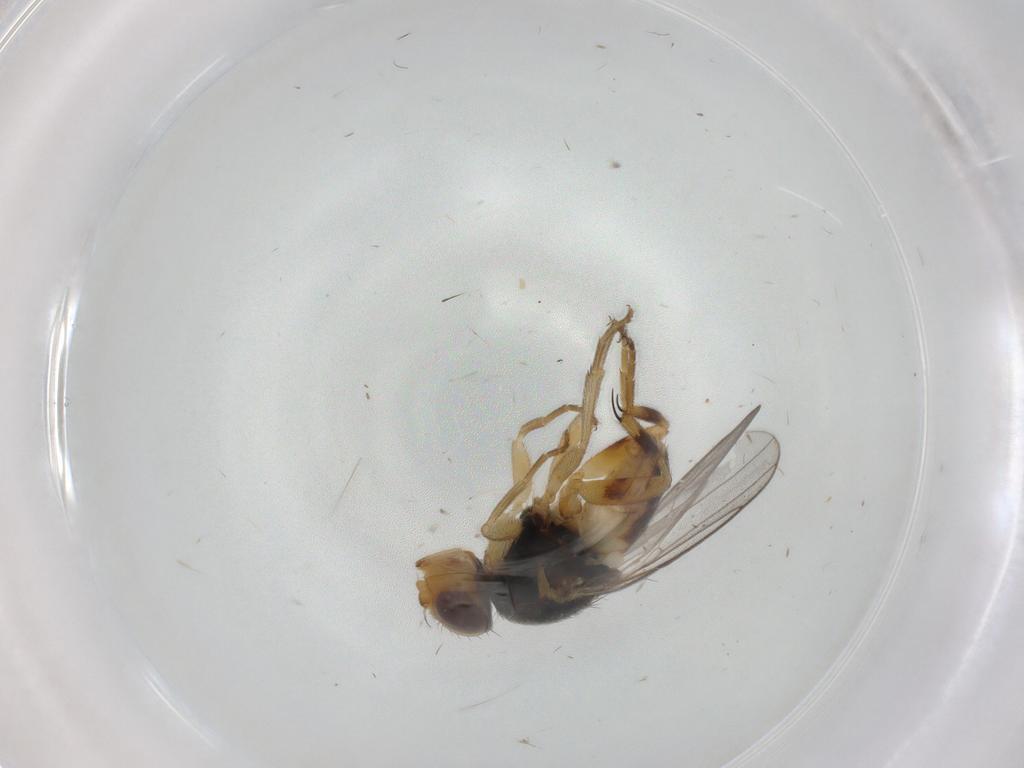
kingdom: Animalia
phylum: Arthropoda
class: Insecta
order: Diptera
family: Chloropidae
